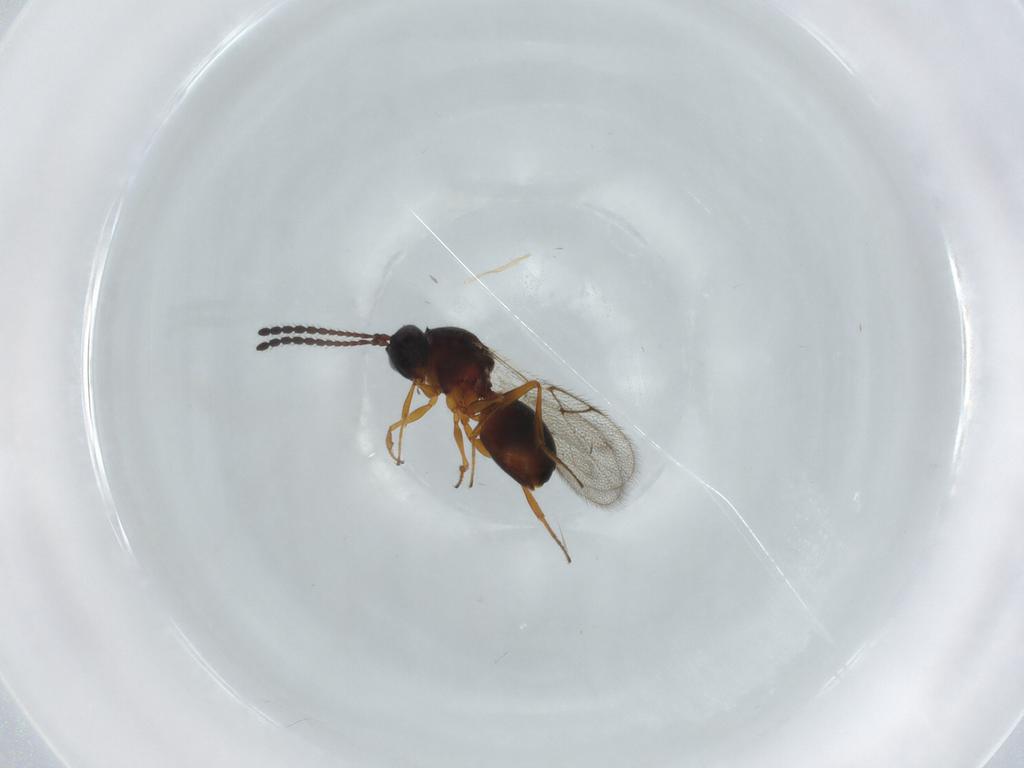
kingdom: Animalia
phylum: Arthropoda
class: Insecta
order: Hymenoptera
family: Figitidae
